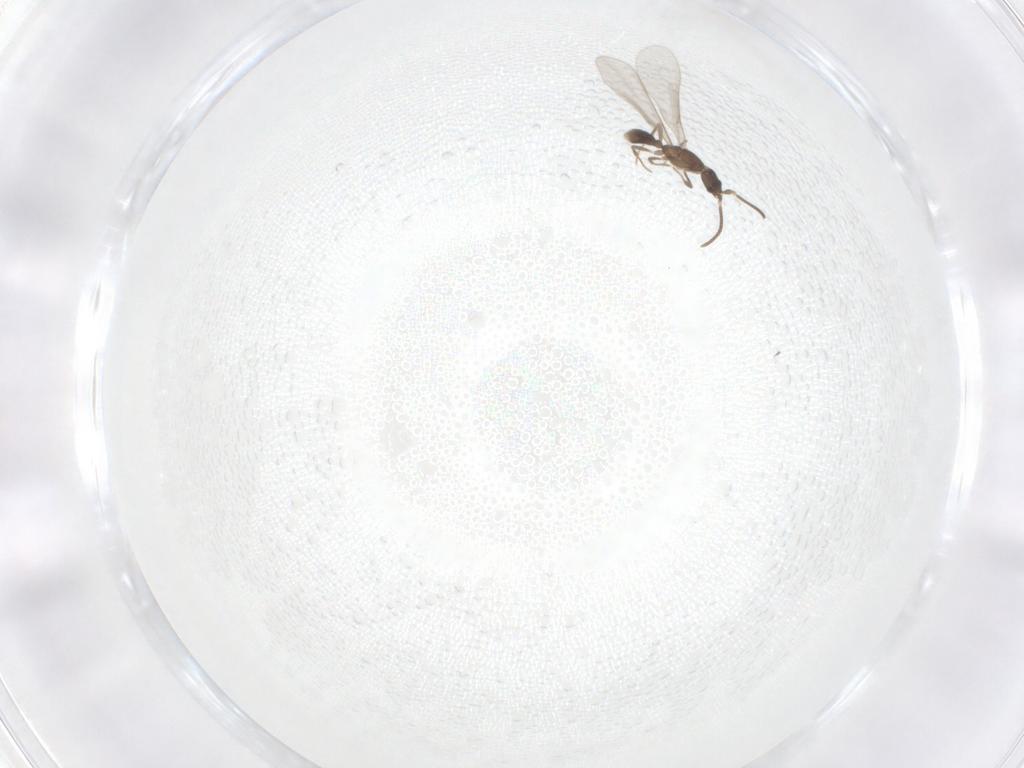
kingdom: Animalia
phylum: Arthropoda
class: Insecta
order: Hymenoptera
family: Formicidae
